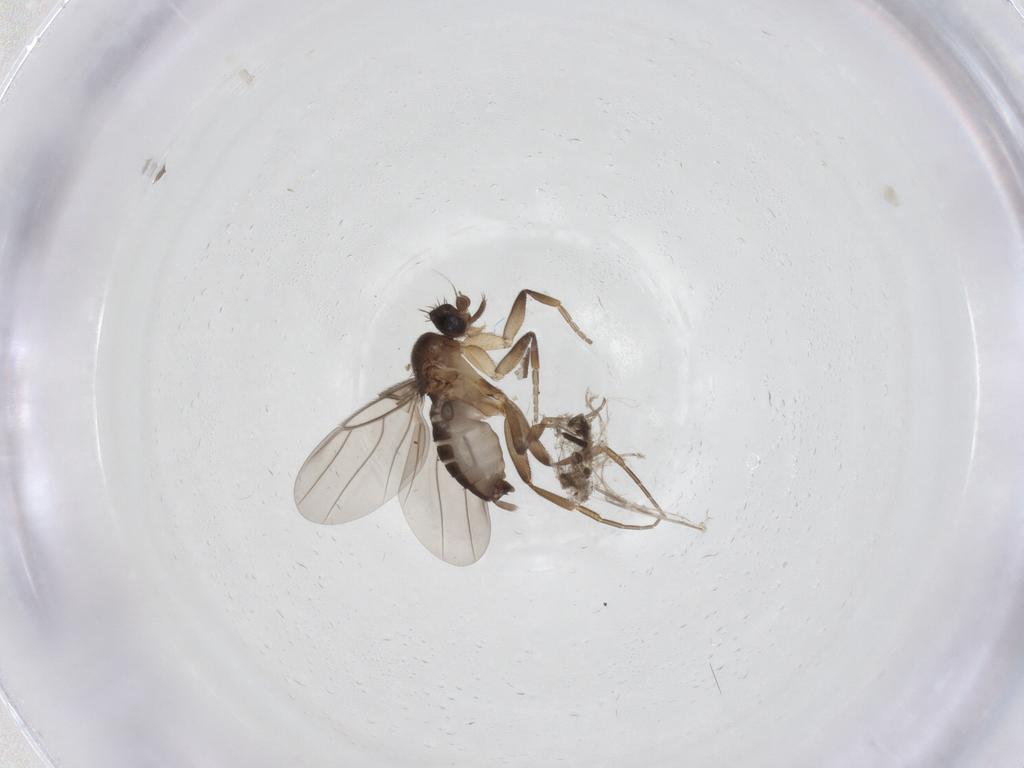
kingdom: Animalia
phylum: Arthropoda
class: Insecta
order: Diptera
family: Phoridae
